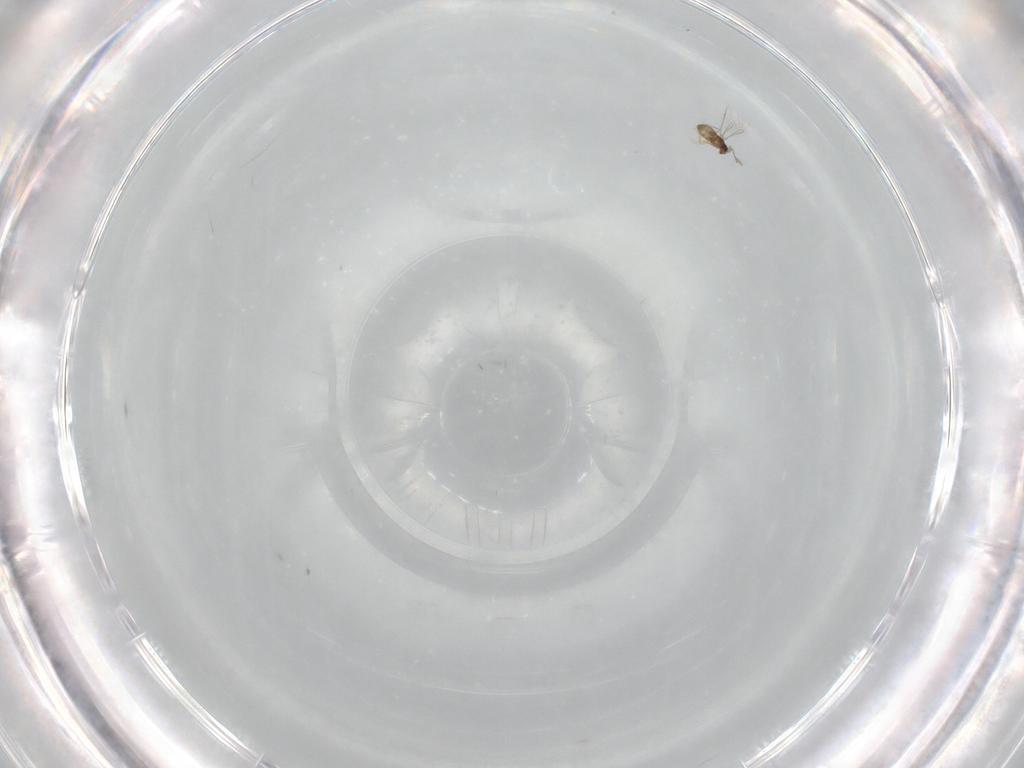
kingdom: Animalia
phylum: Arthropoda
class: Insecta
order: Hymenoptera
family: Eulophidae
